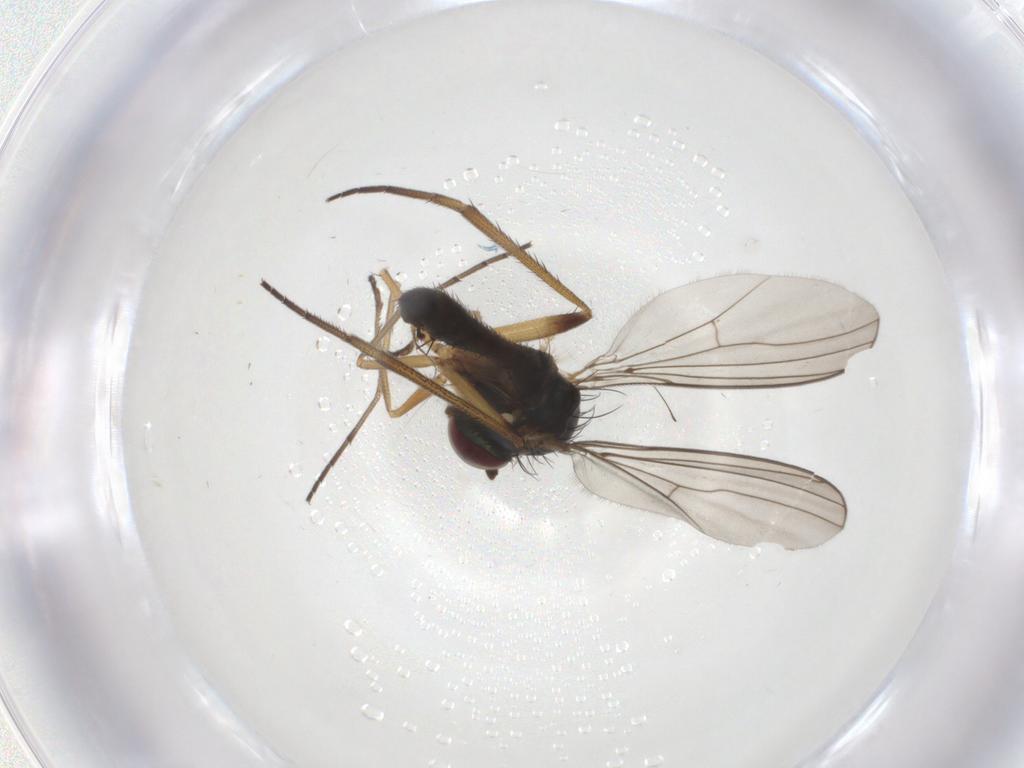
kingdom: Animalia
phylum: Arthropoda
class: Insecta
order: Diptera
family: Dolichopodidae
